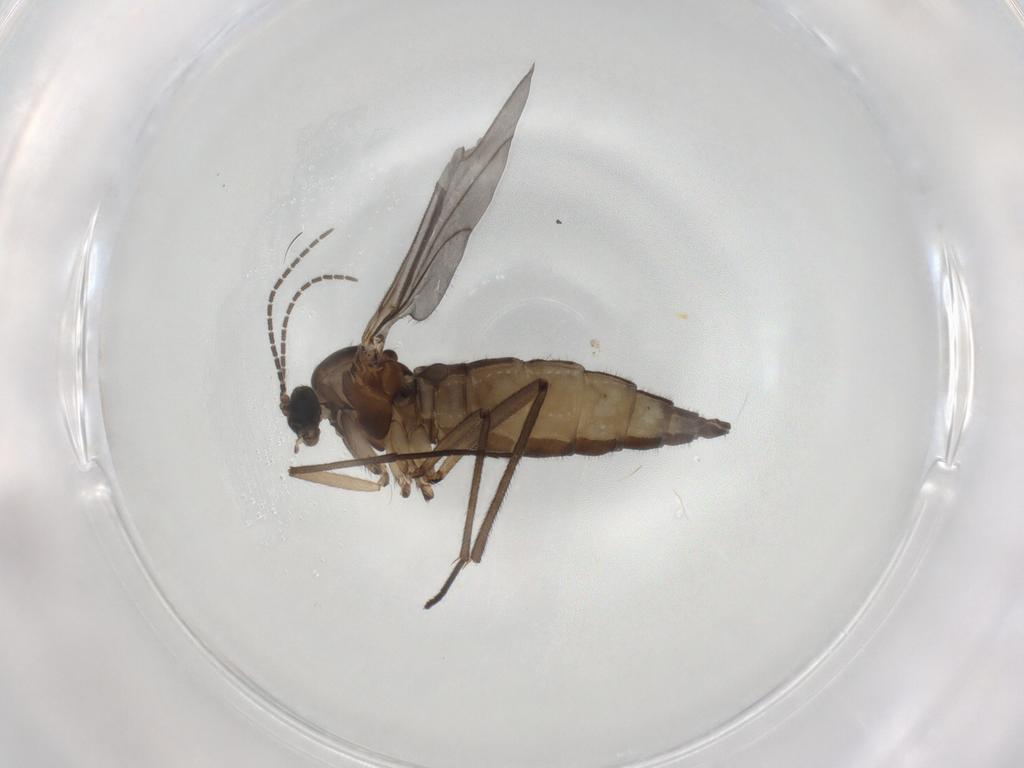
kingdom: Animalia
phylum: Arthropoda
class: Insecta
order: Diptera
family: Sciaridae
